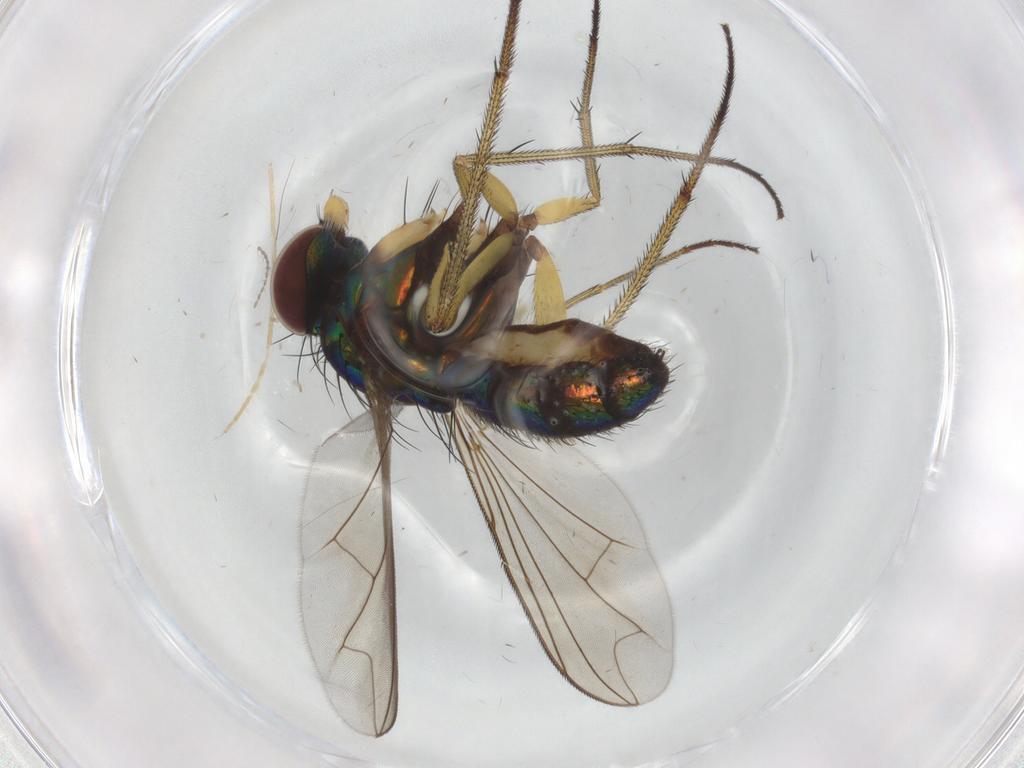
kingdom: Animalia
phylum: Arthropoda
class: Insecta
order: Diptera
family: Dolichopodidae
